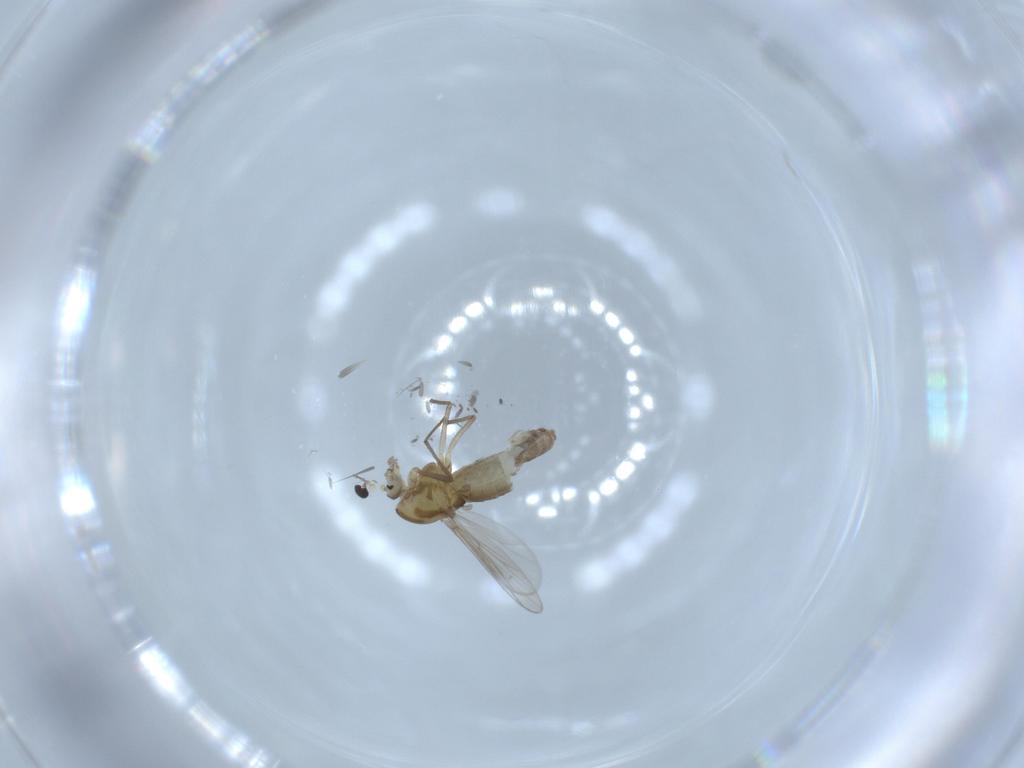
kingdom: Animalia
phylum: Arthropoda
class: Insecta
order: Diptera
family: Chironomidae
